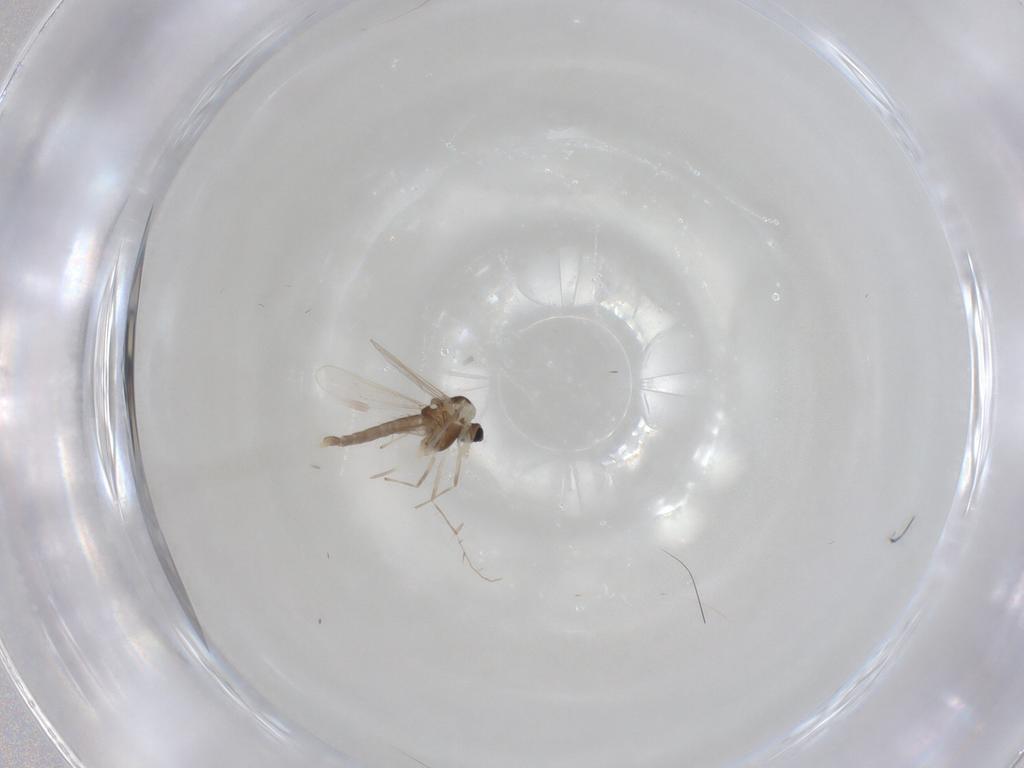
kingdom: Animalia
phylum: Arthropoda
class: Insecta
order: Diptera
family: Chironomidae
